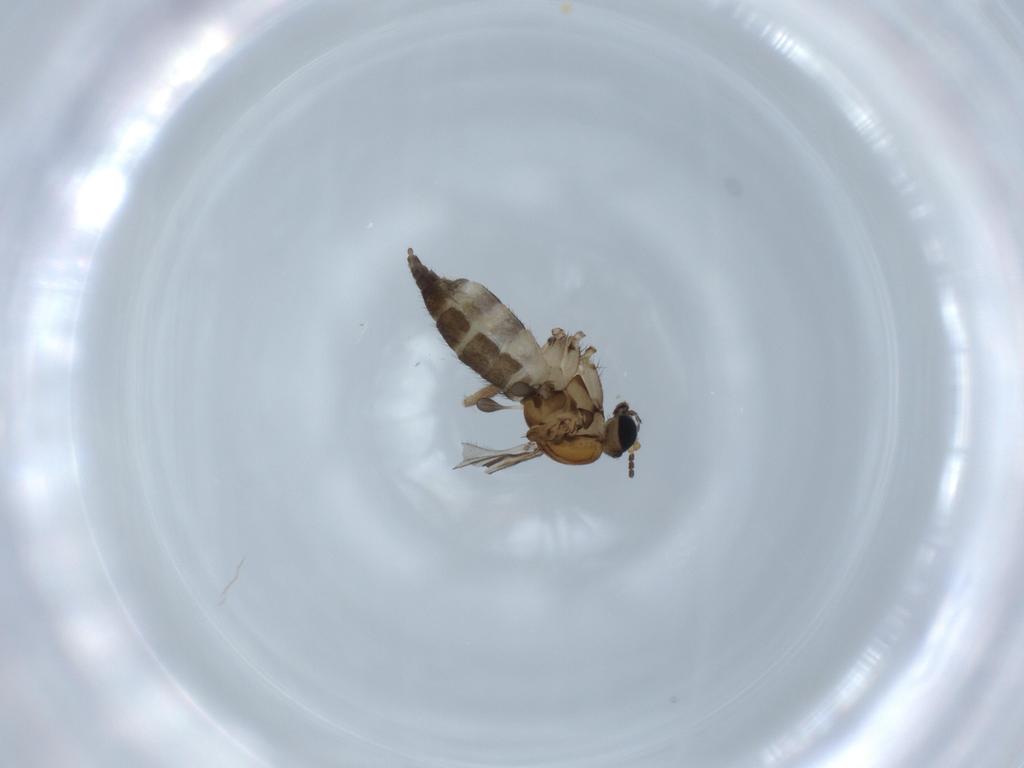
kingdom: Animalia
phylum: Arthropoda
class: Insecta
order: Diptera
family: Sciaridae
